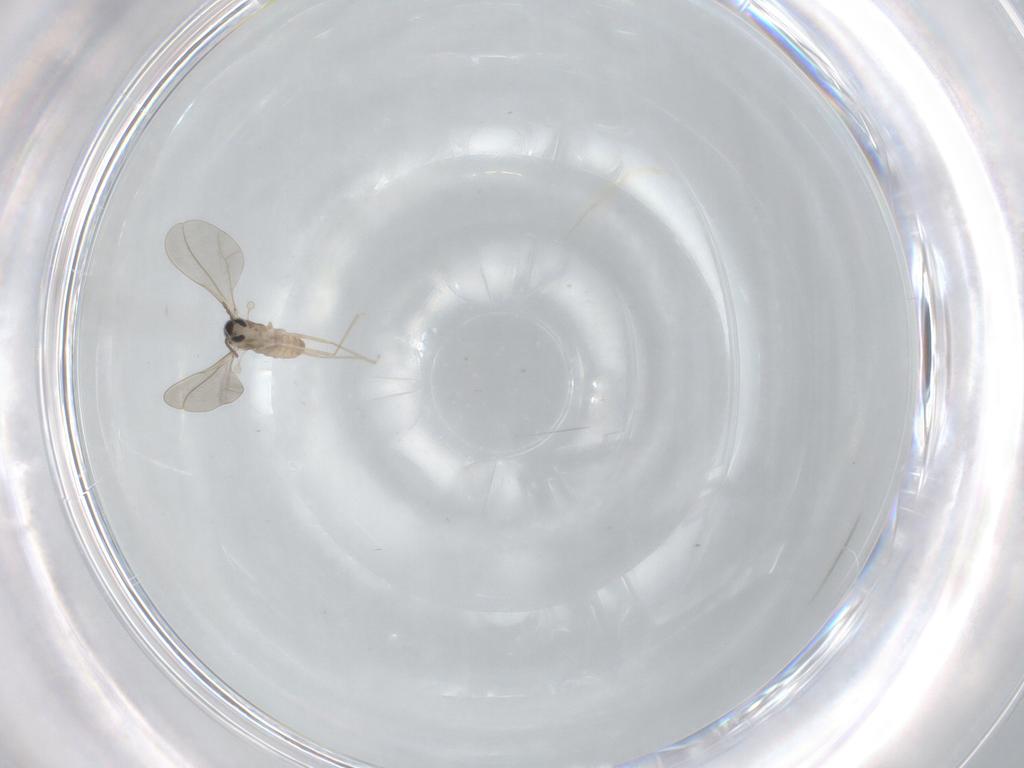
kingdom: Animalia
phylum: Arthropoda
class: Insecta
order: Diptera
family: Cecidomyiidae
